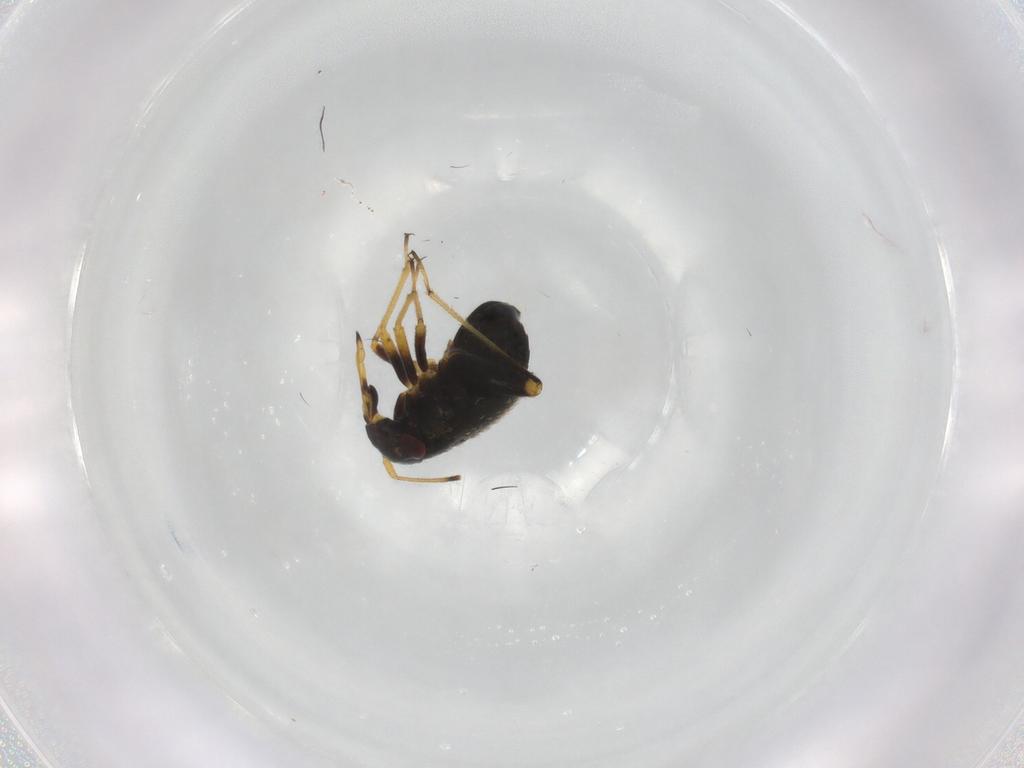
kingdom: Animalia
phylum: Arthropoda
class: Insecta
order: Hemiptera
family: Miridae
